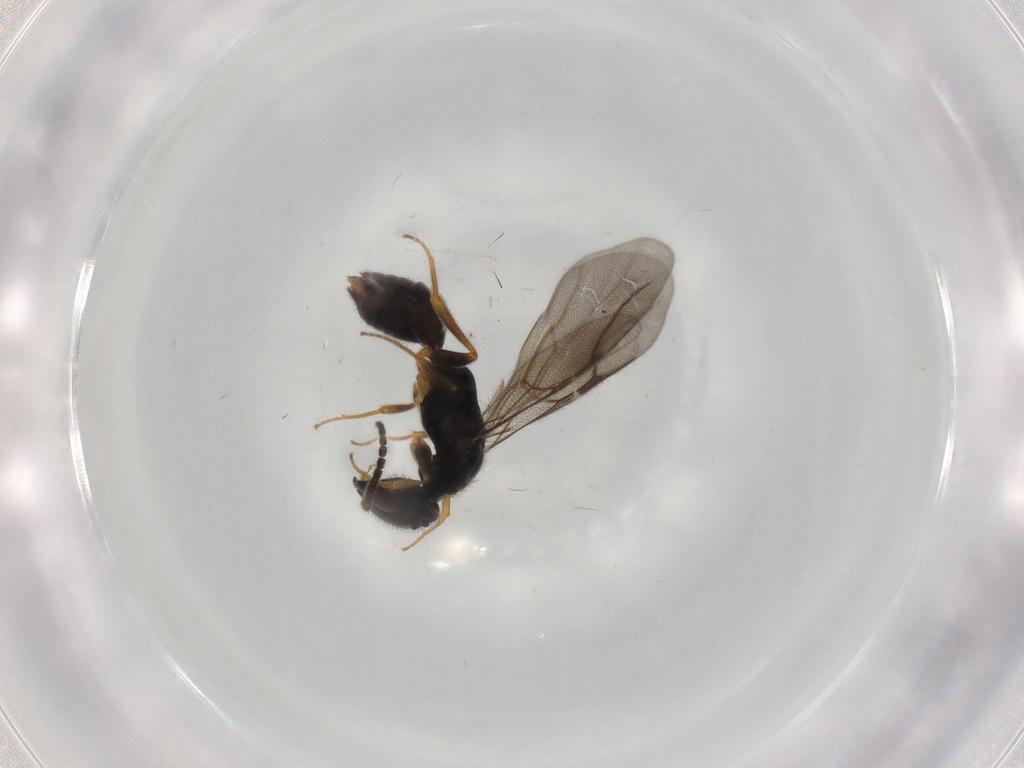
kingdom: Animalia
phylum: Arthropoda
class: Insecta
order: Hymenoptera
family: Bethylidae
